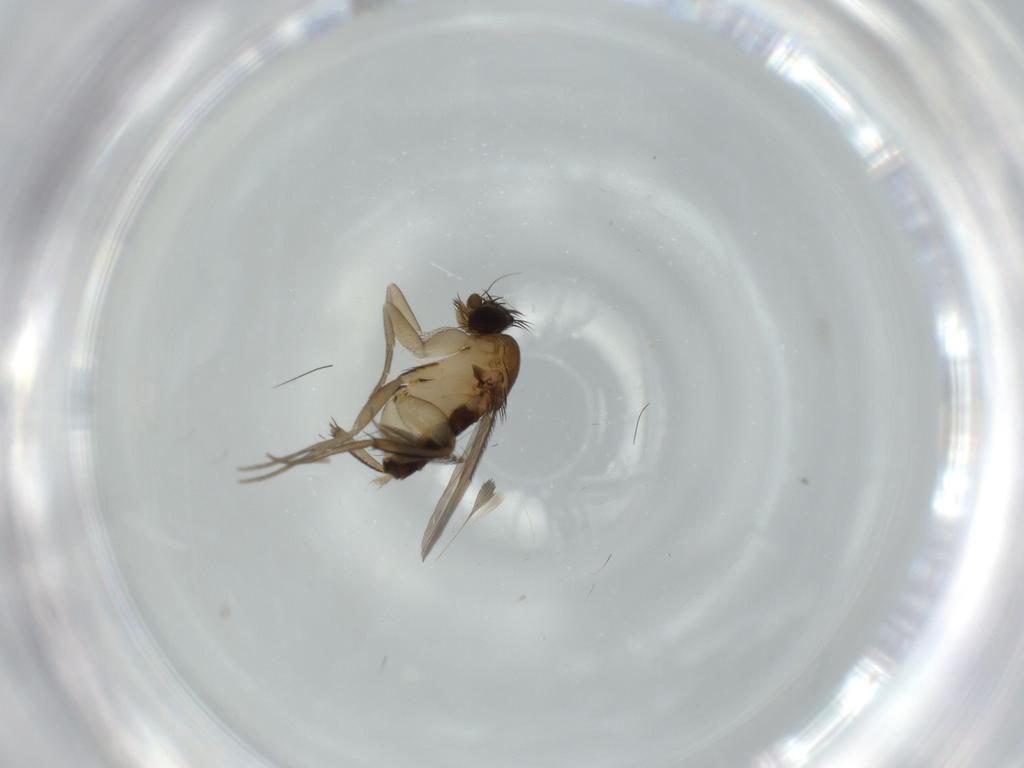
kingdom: Animalia
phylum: Arthropoda
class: Insecta
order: Diptera
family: Phoridae
